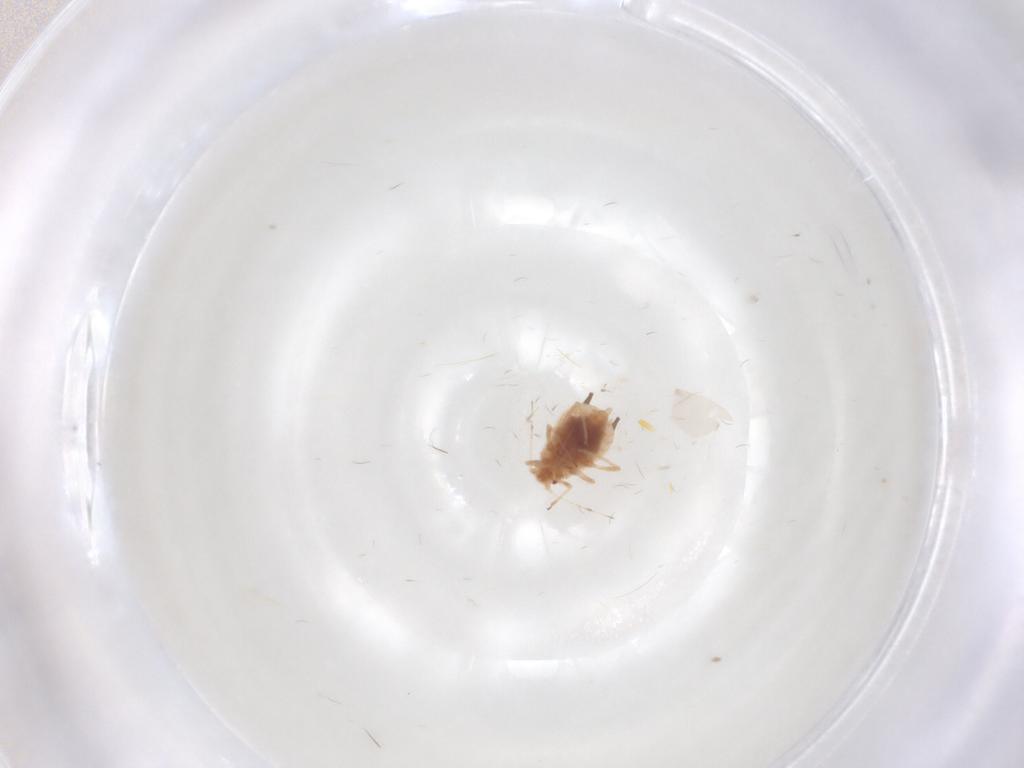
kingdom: Animalia
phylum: Arthropoda
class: Insecta
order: Hemiptera
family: Aphididae
